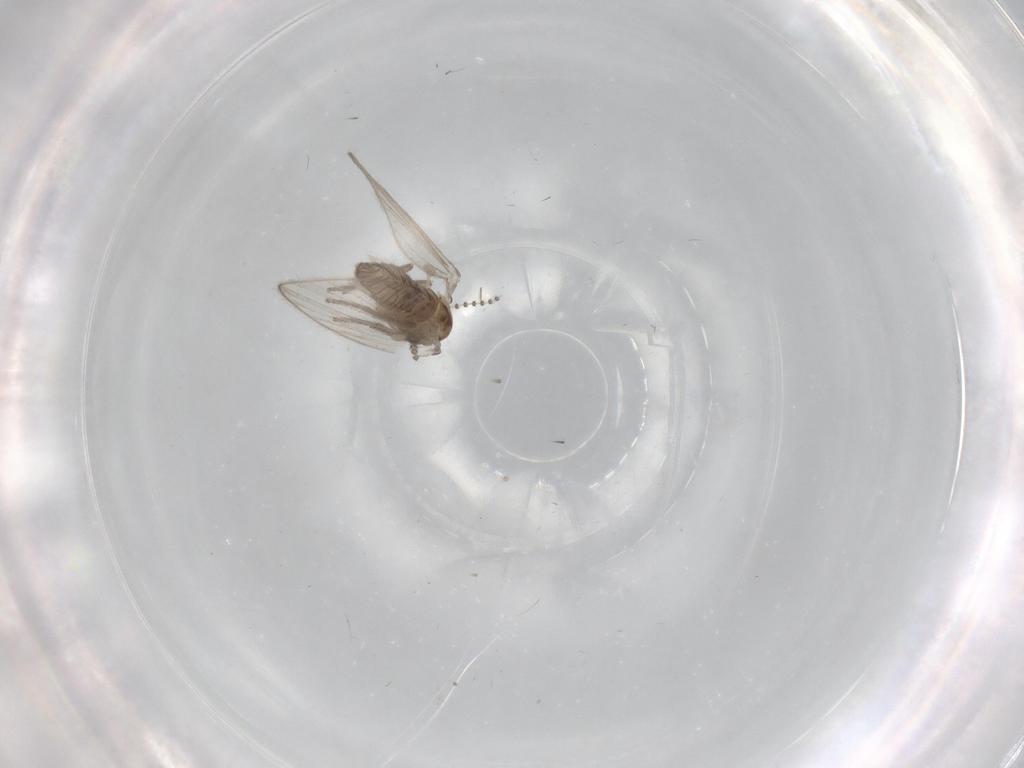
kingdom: Animalia
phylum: Arthropoda
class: Insecta
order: Diptera
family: Psychodidae
